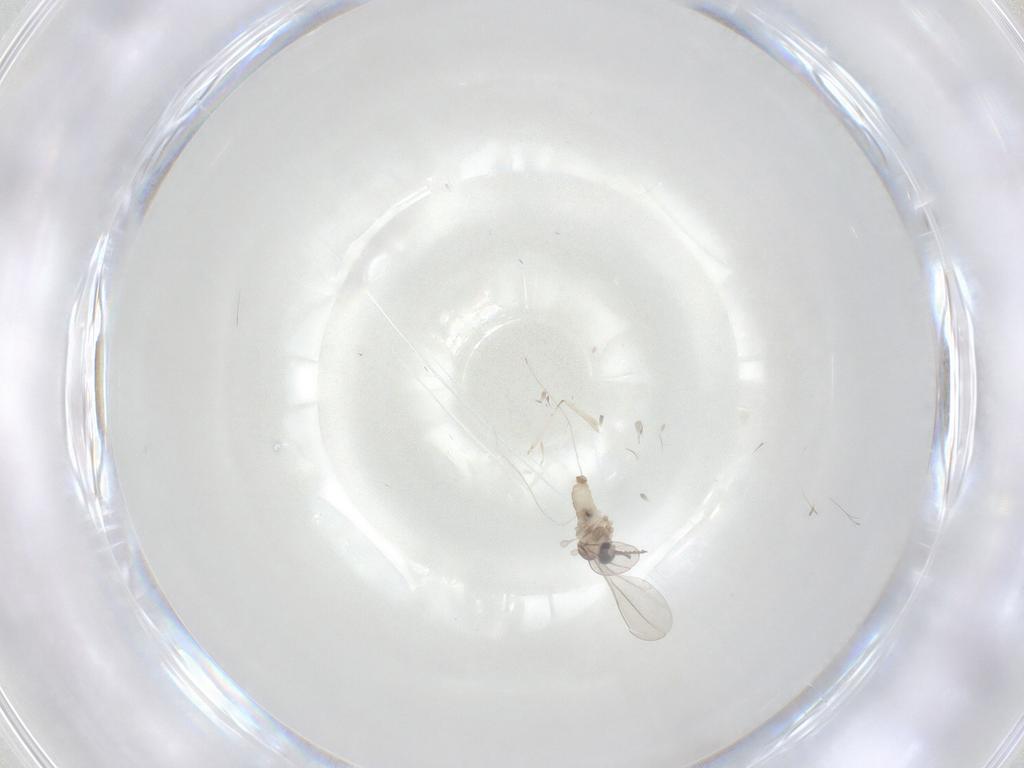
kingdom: Animalia
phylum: Arthropoda
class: Insecta
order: Diptera
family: Cecidomyiidae
